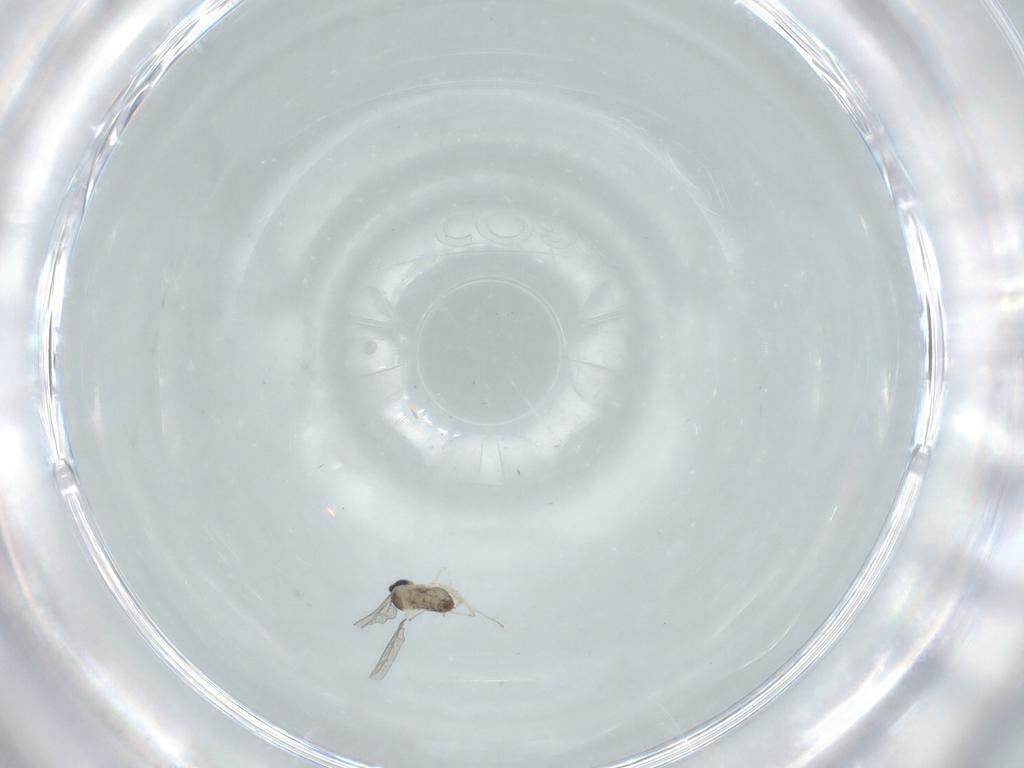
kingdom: Animalia
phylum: Arthropoda
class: Insecta
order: Diptera
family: Cecidomyiidae
